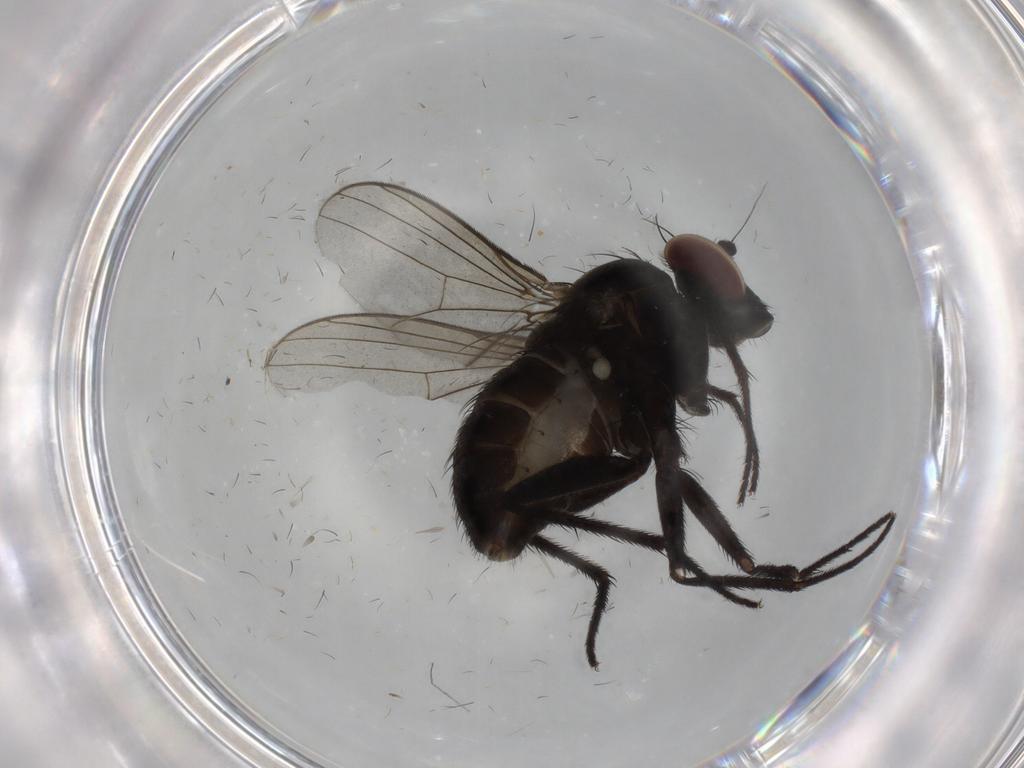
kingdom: Animalia
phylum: Arthropoda
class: Insecta
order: Diptera
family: Dolichopodidae
